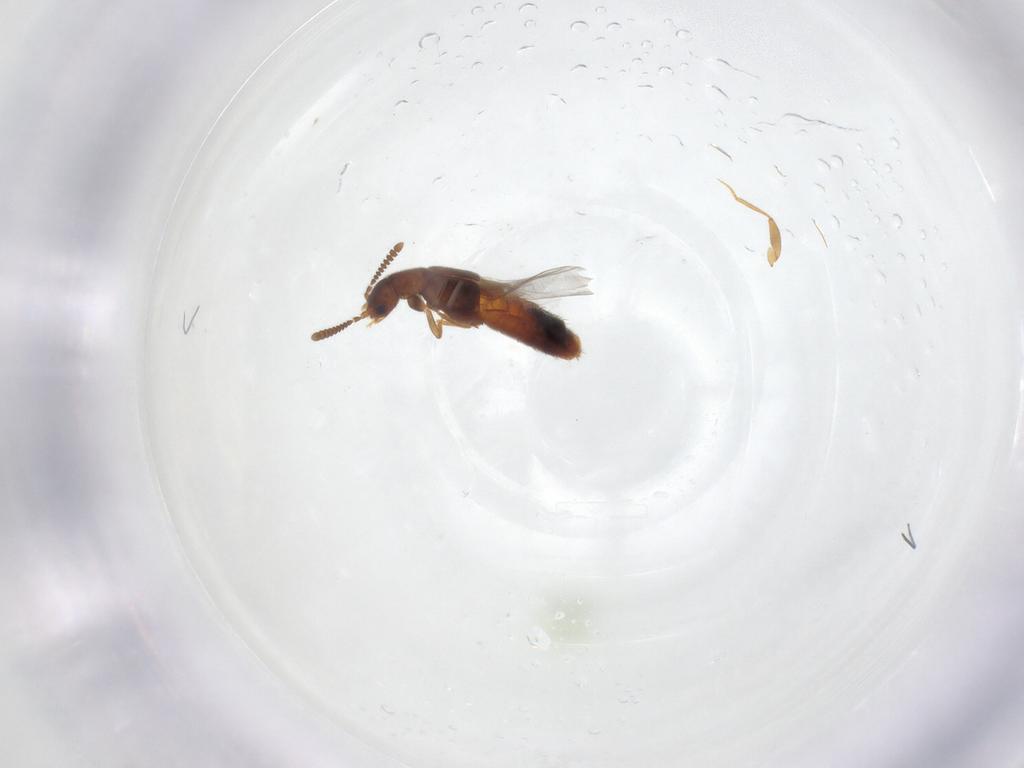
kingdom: Animalia
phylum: Arthropoda
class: Insecta
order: Coleoptera
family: Staphylinidae
